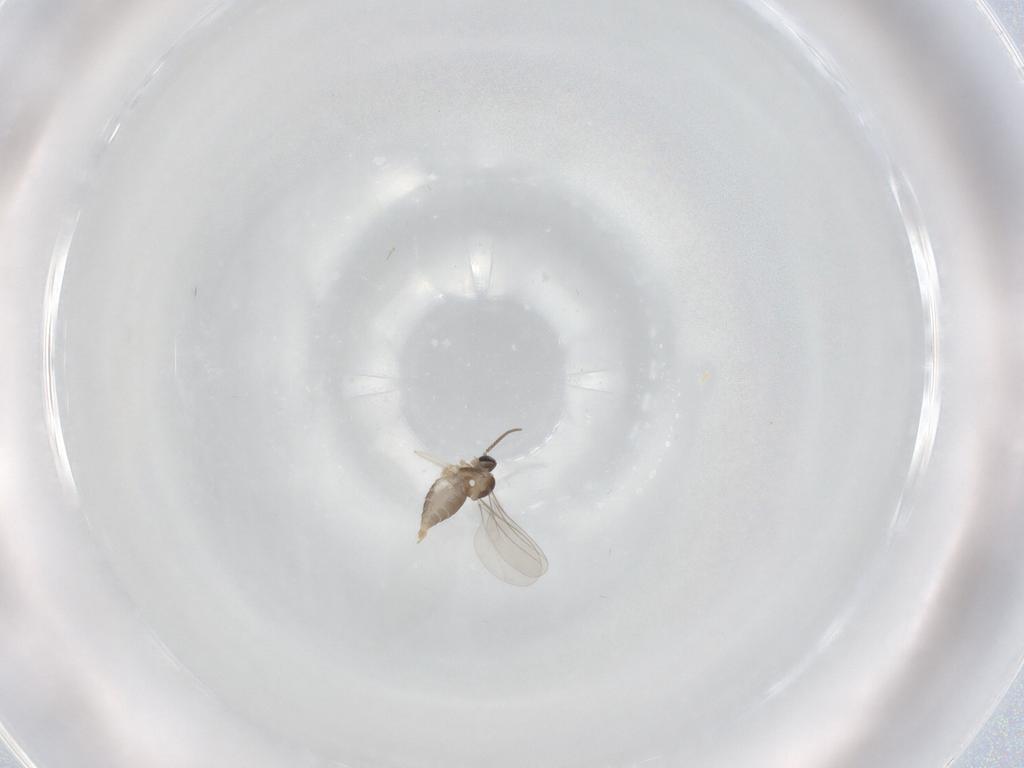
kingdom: Animalia
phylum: Arthropoda
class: Insecta
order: Diptera
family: Cecidomyiidae
